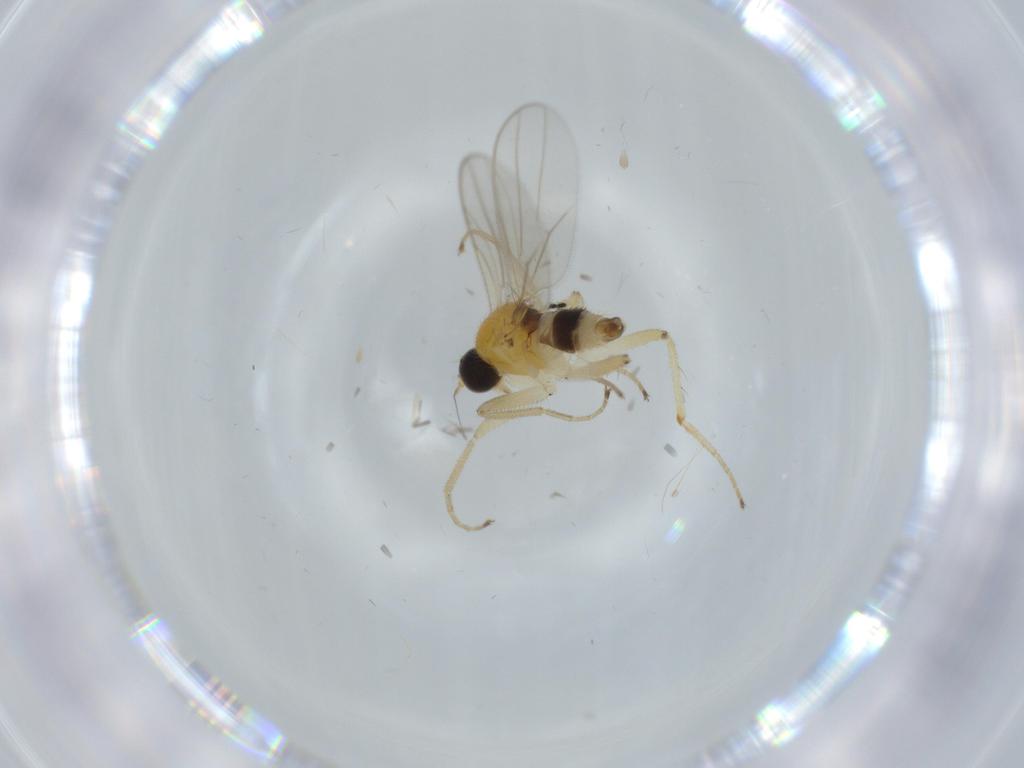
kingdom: Animalia
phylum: Arthropoda
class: Insecta
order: Diptera
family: Hybotidae
